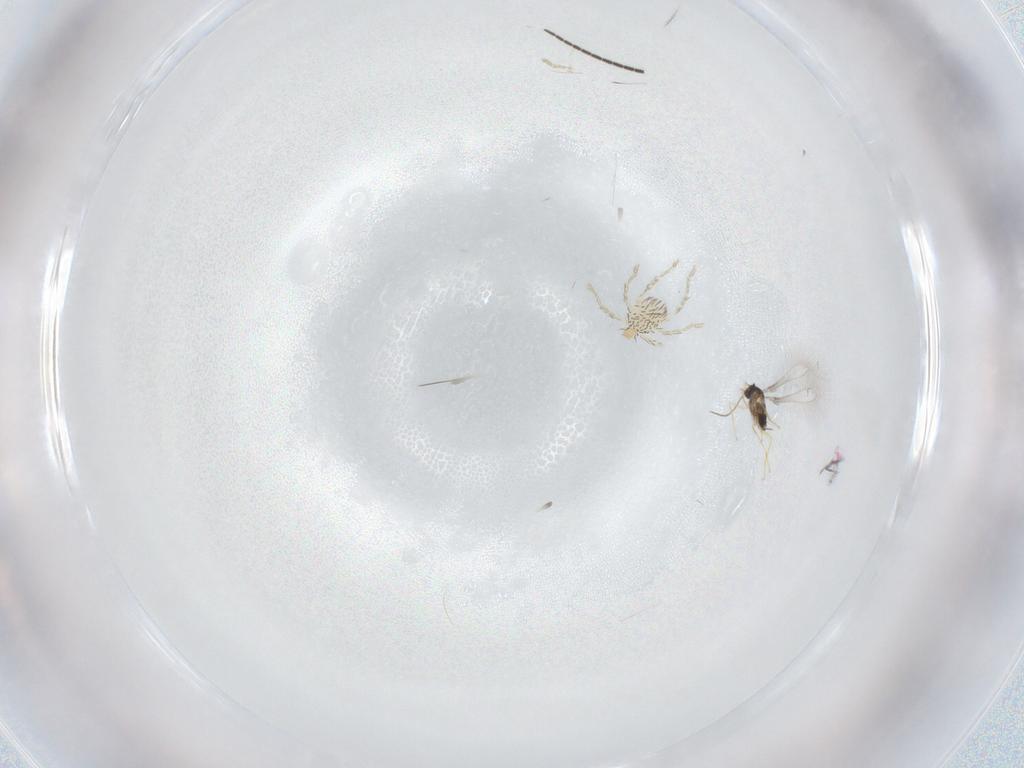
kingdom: Animalia
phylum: Arthropoda
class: Insecta
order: Hymenoptera
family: Mymaridae
